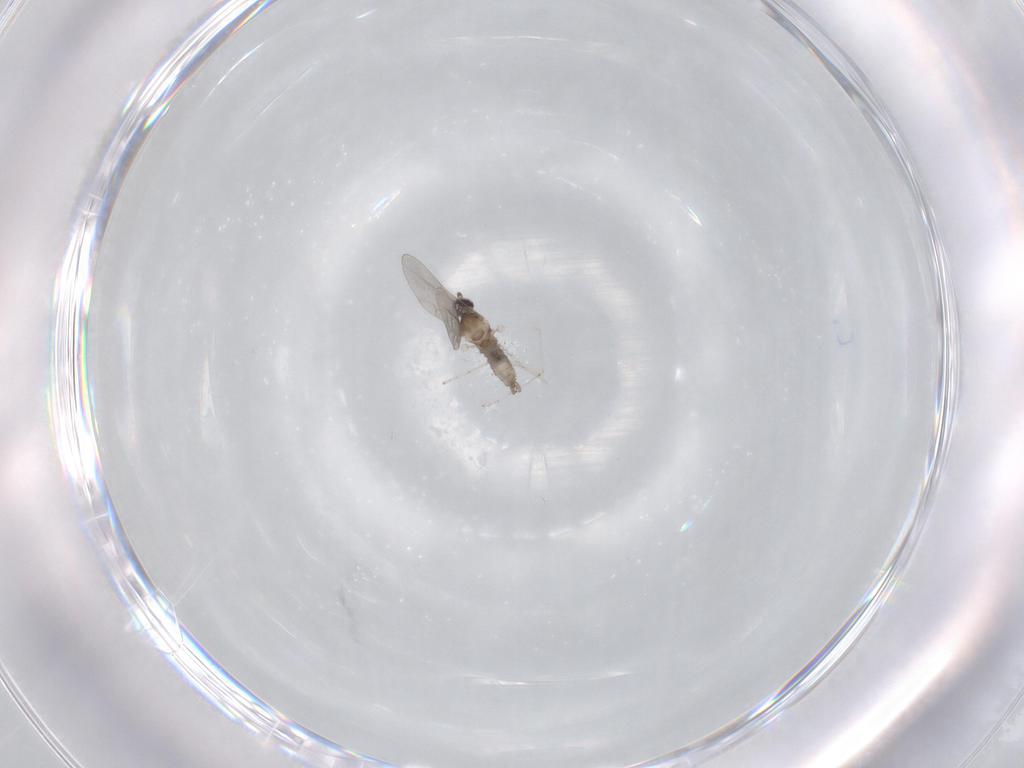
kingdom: Animalia
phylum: Arthropoda
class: Insecta
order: Diptera
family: Cecidomyiidae
